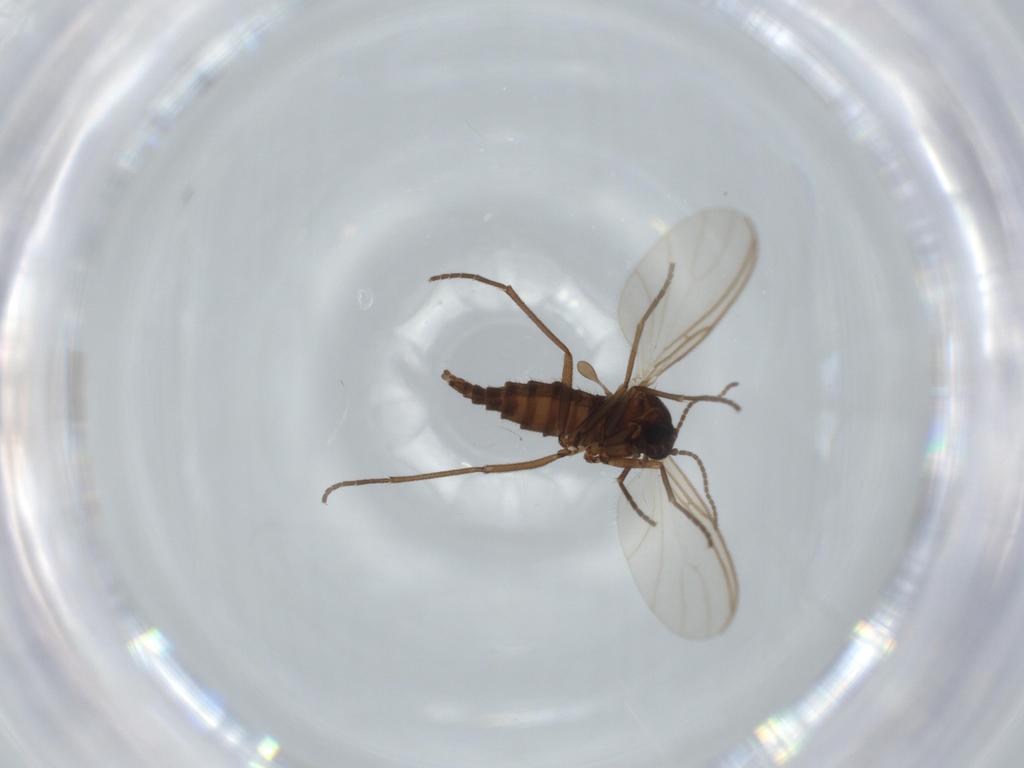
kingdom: Animalia
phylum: Arthropoda
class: Insecta
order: Diptera
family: Sciaridae
